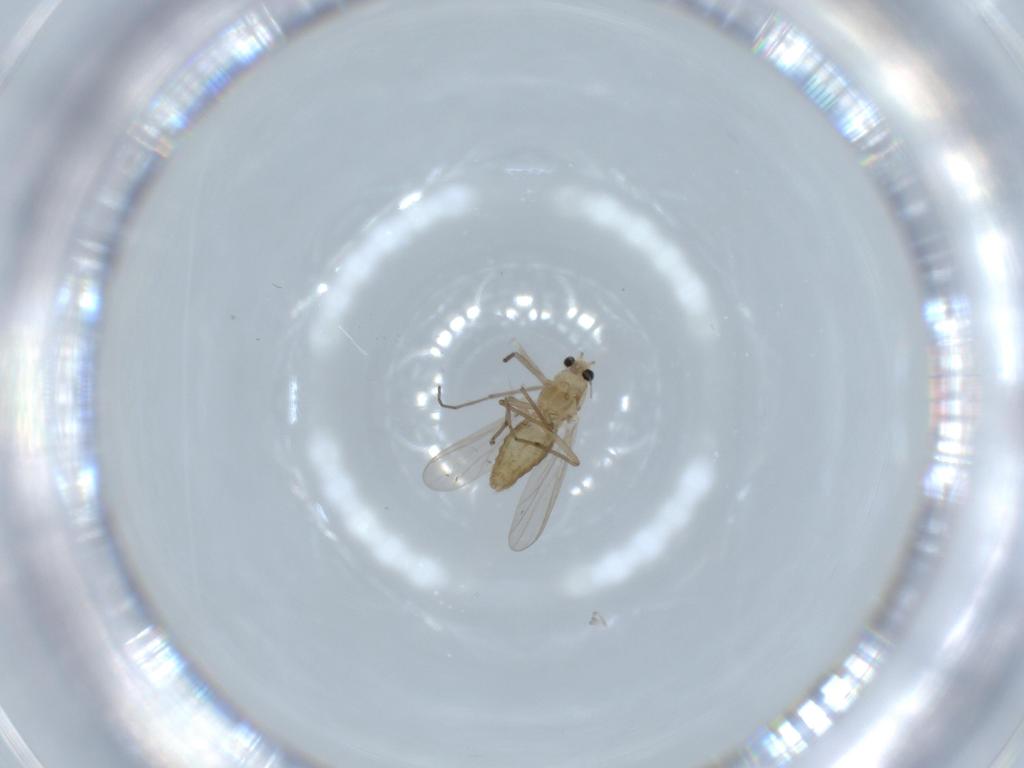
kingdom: Animalia
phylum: Arthropoda
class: Insecta
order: Diptera
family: Chironomidae
